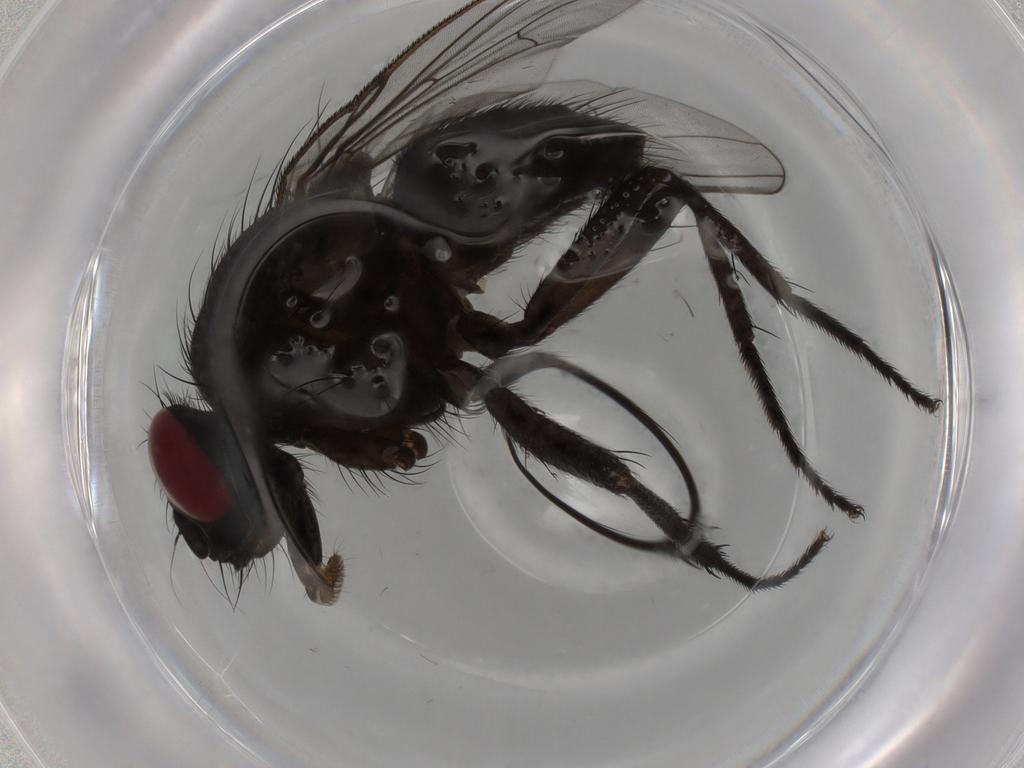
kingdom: Animalia
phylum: Arthropoda
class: Insecta
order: Diptera
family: Muscidae
